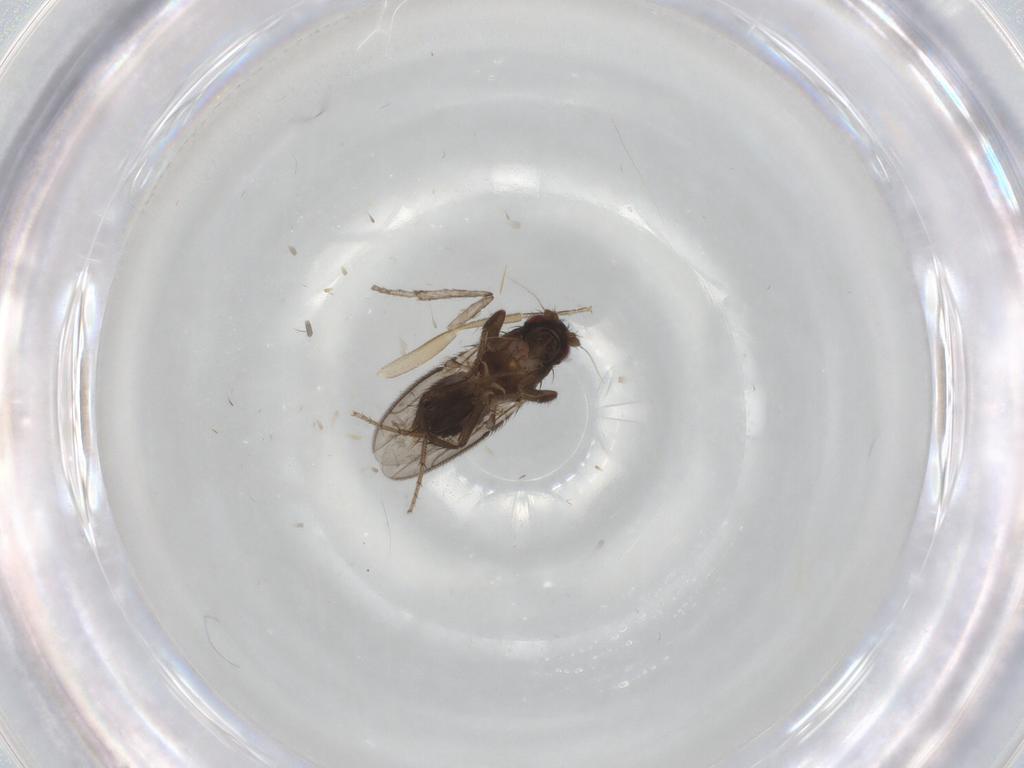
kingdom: Animalia
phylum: Arthropoda
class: Insecta
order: Diptera
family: Sphaeroceridae
